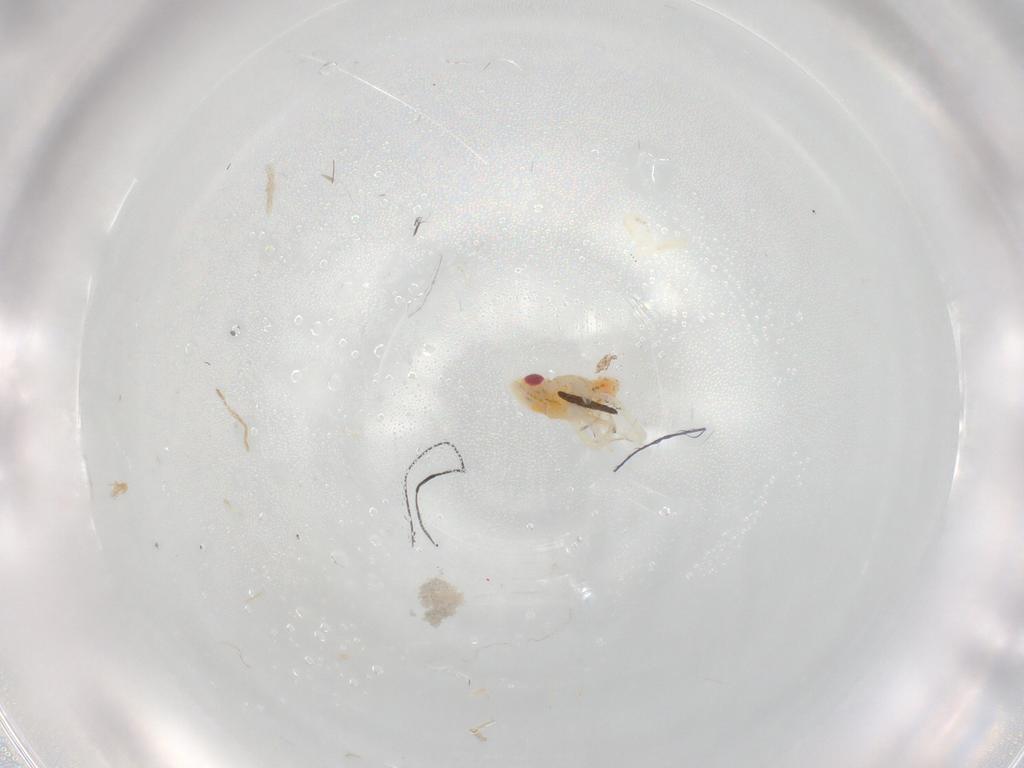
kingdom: Animalia
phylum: Arthropoda
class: Insecta
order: Hemiptera
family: Tropiduchidae
